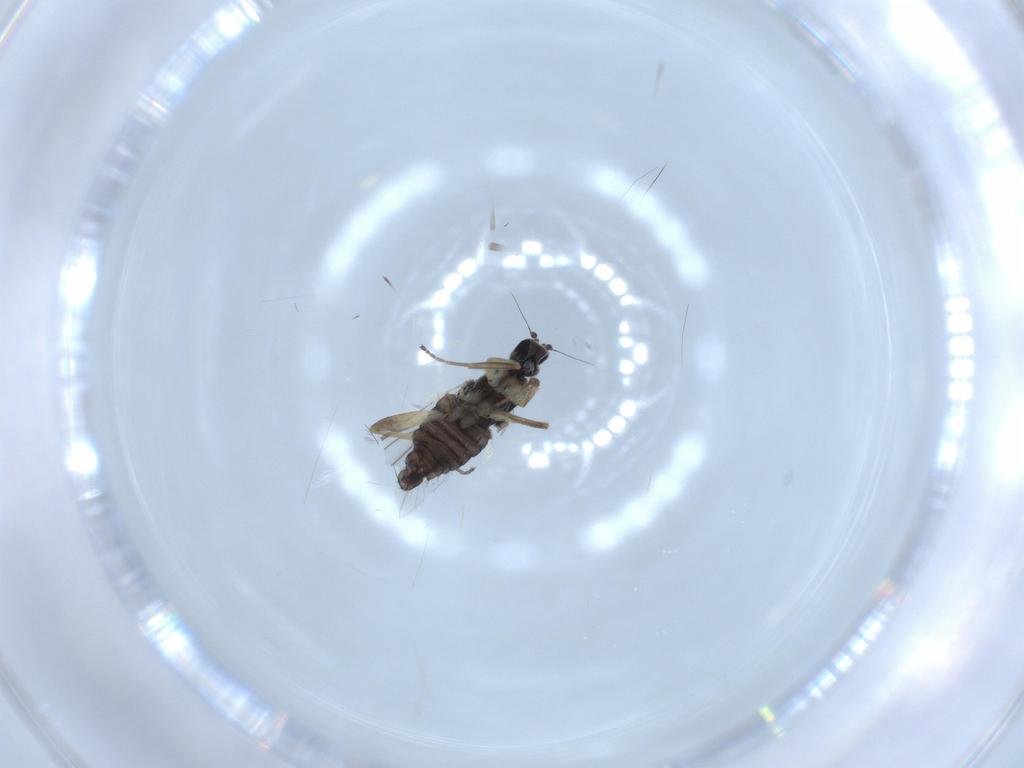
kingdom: Animalia
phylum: Arthropoda
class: Insecta
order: Diptera
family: Hybotidae
